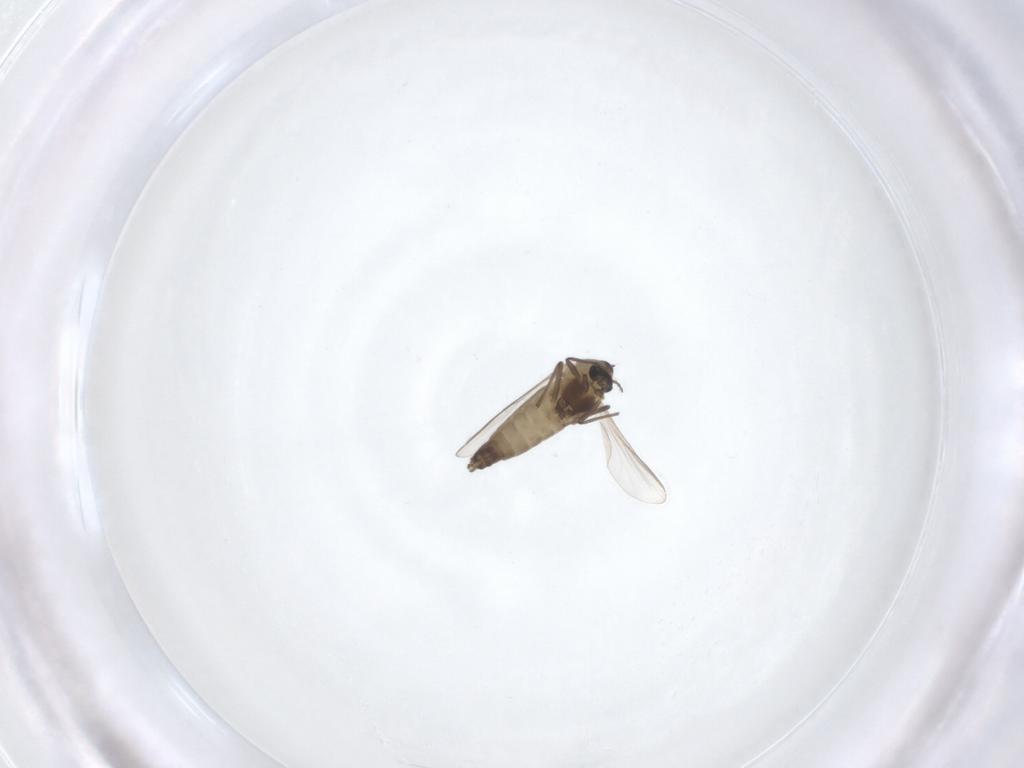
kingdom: Animalia
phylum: Arthropoda
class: Insecta
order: Diptera
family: Chironomidae
